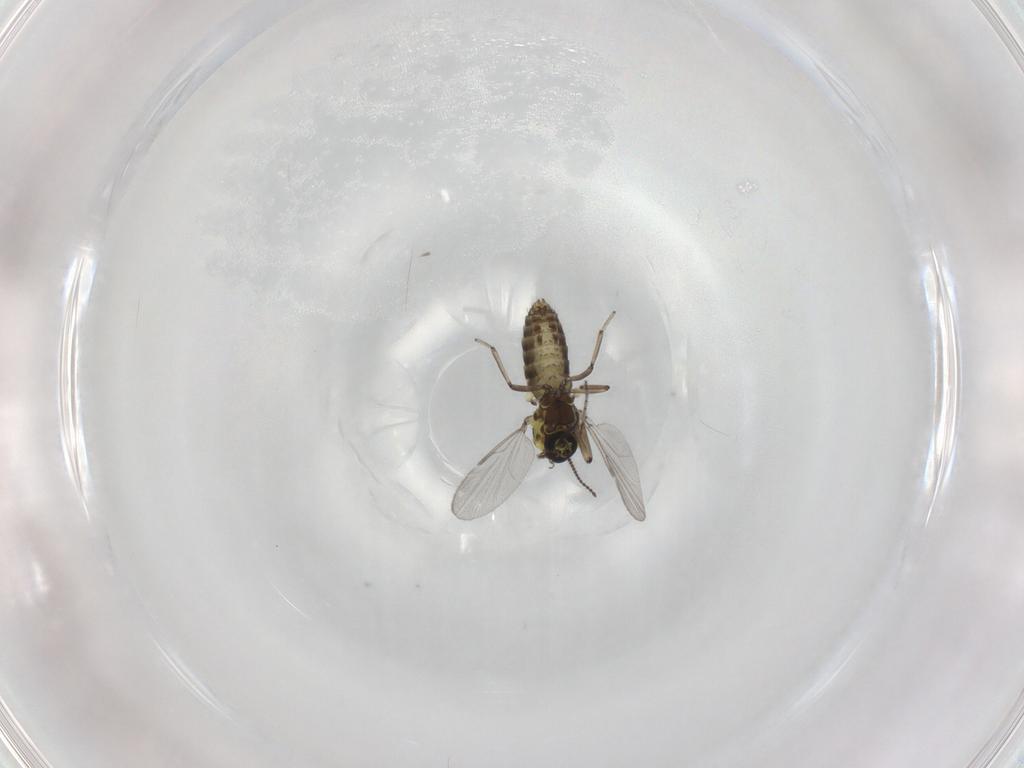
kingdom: Animalia
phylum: Arthropoda
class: Insecta
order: Diptera
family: Ceratopogonidae
